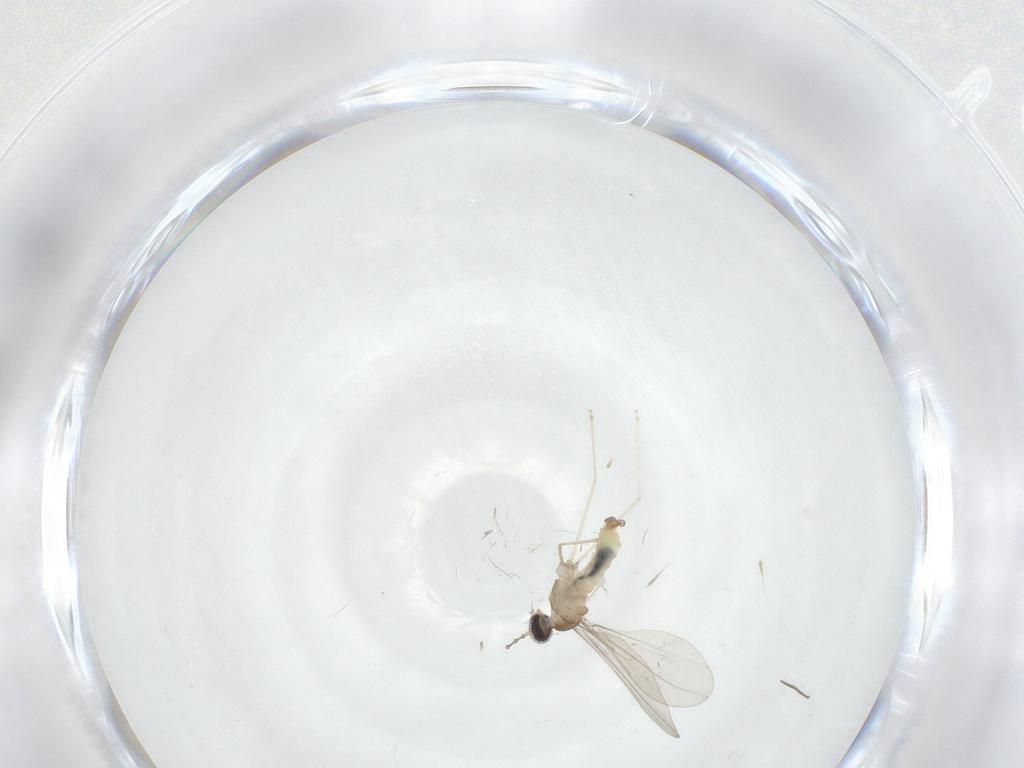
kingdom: Animalia
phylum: Arthropoda
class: Insecta
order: Diptera
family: Cecidomyiidae
